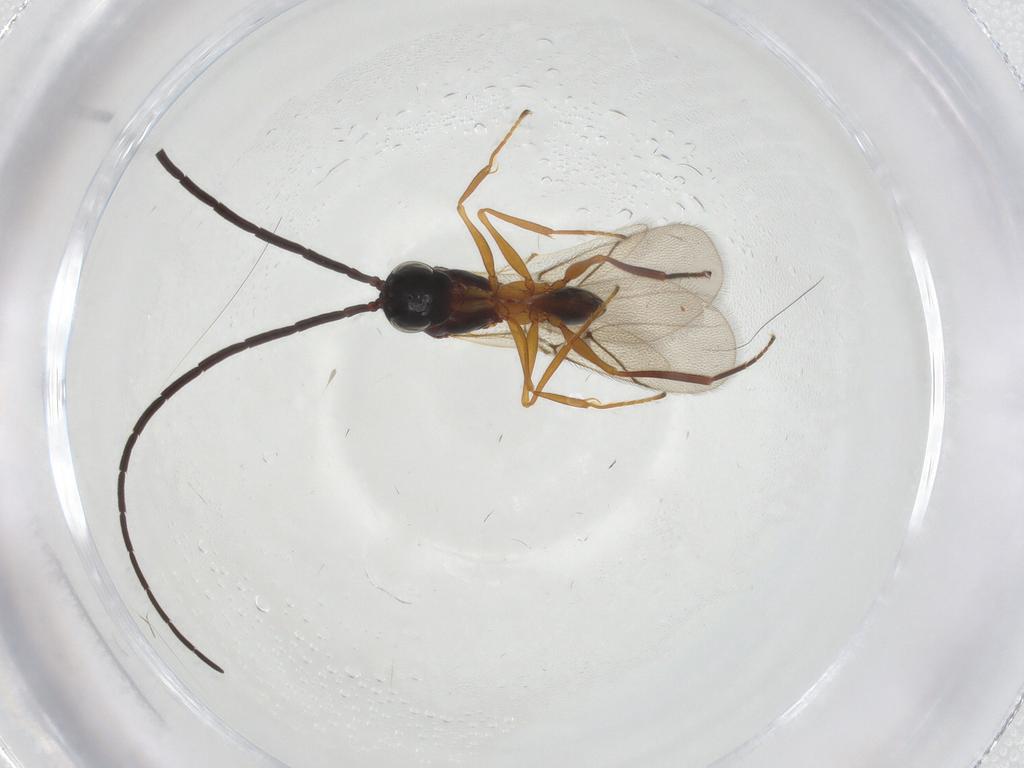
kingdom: Animalia
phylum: Arthropoda
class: Insecta
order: Hymenoptera
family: Figitidae
